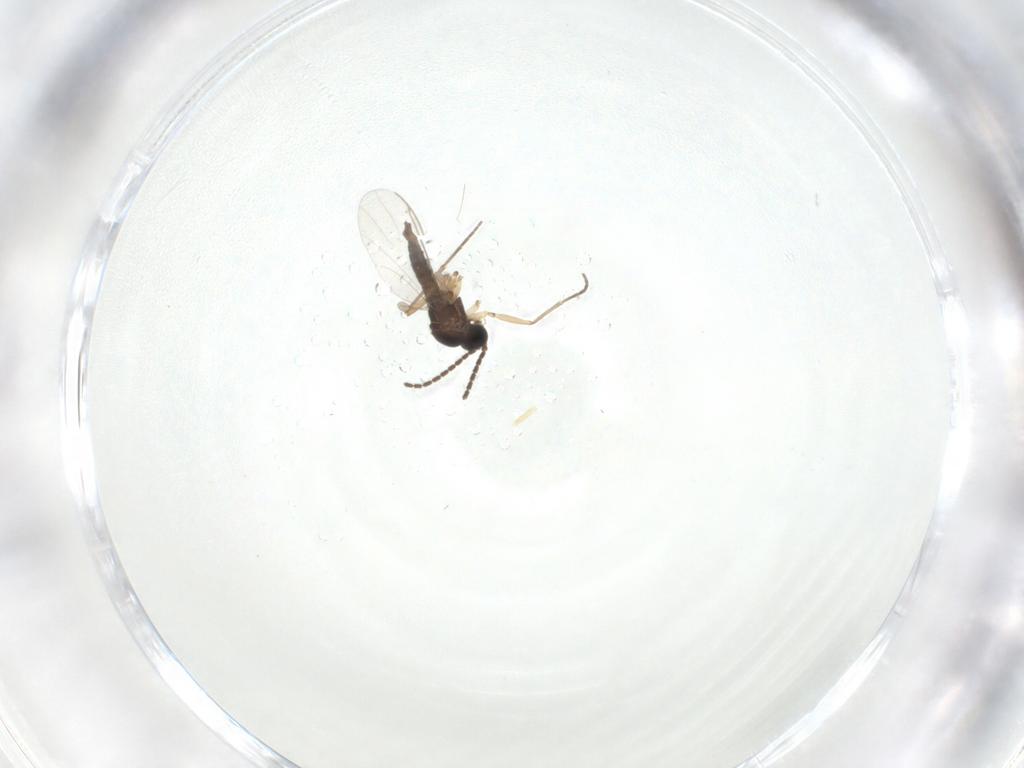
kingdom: Animalia
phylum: Arthropoda
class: Insecta
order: Diptera
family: Sciaridae
